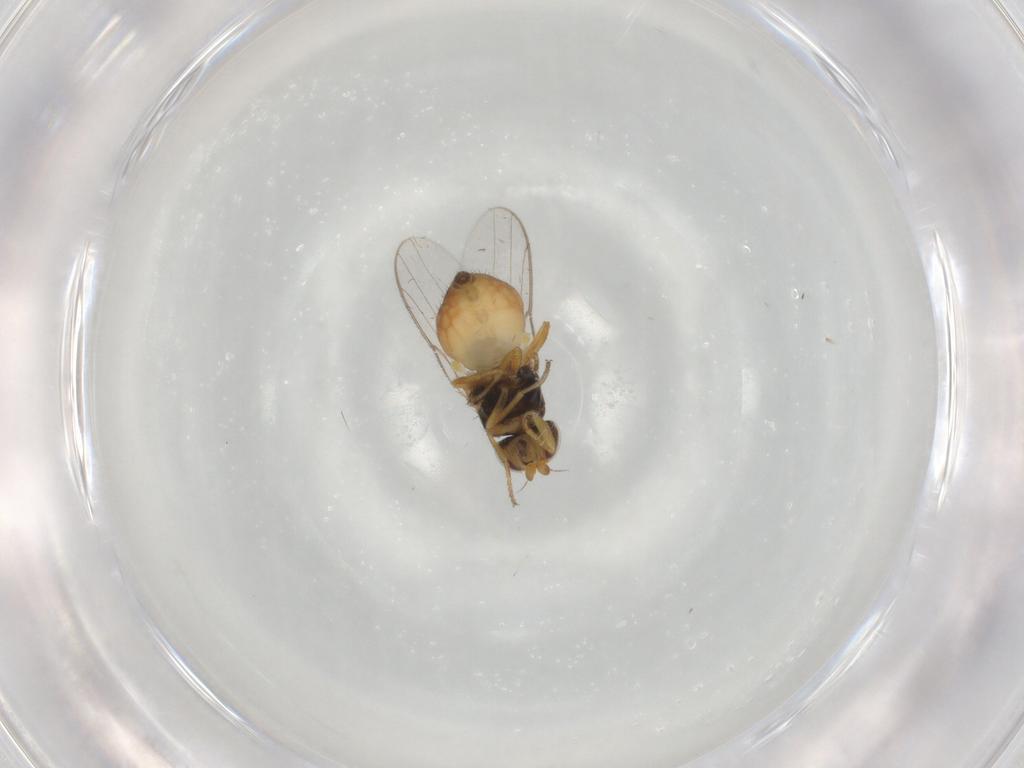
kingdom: Animalia
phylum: Arthropoda
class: Insecta
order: Diptera
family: Chloropidae
